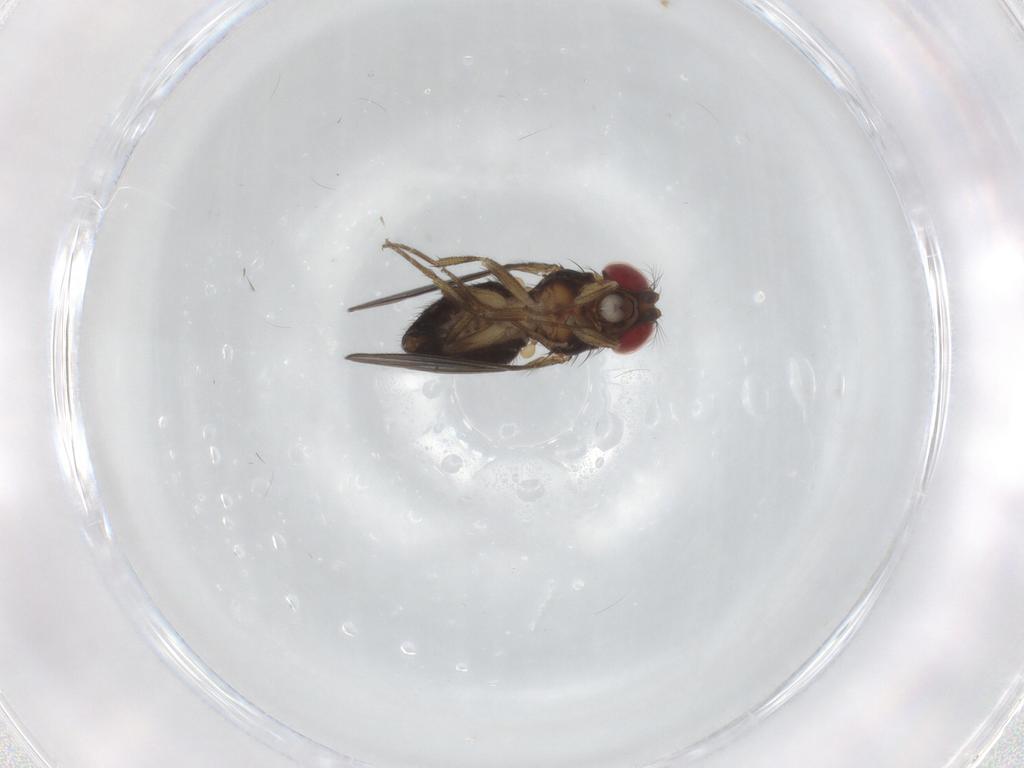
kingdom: Animalia
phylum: Arthropoda
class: Insecta
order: Diptera
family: Drosophilidae
